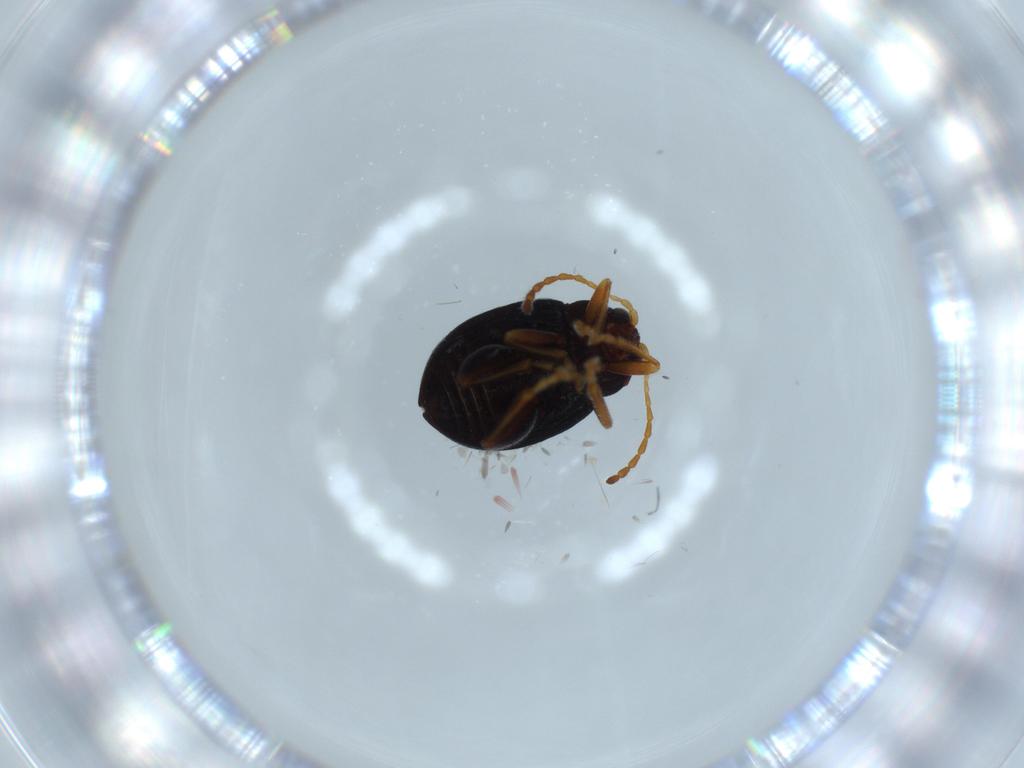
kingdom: Animalia
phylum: Arthropoda
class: Insecta
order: Coleoptera
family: Chrysomelidae
